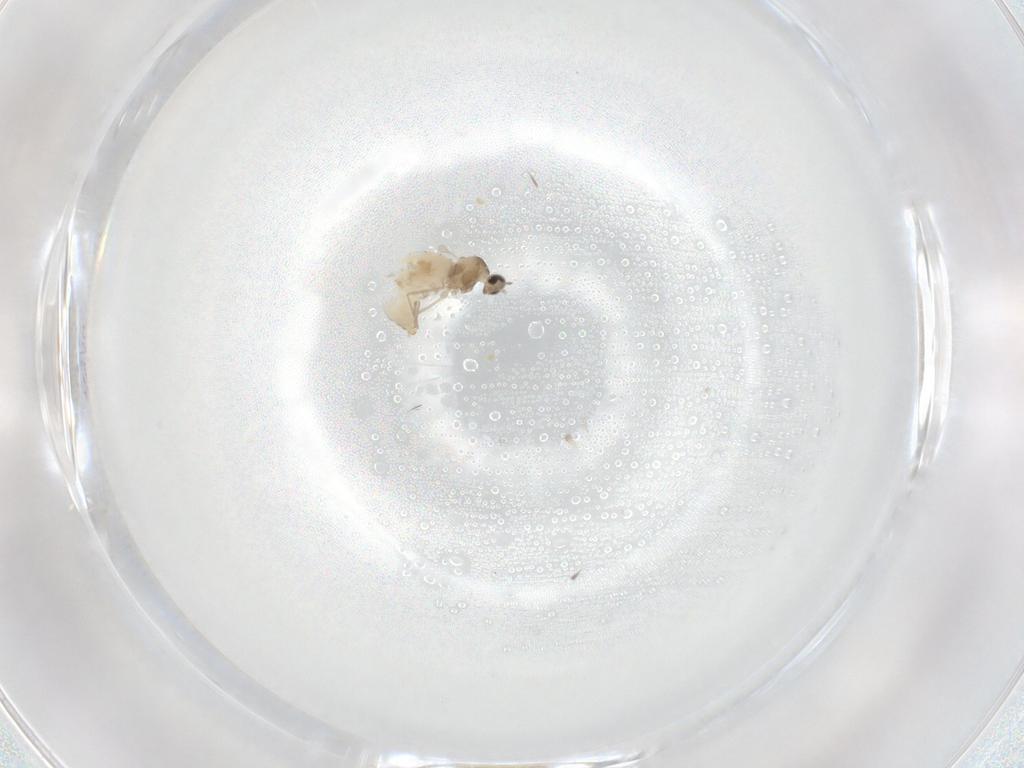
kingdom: Animalia
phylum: Arthropoda
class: Insecta
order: Diptera
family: Cecidomyiidae
